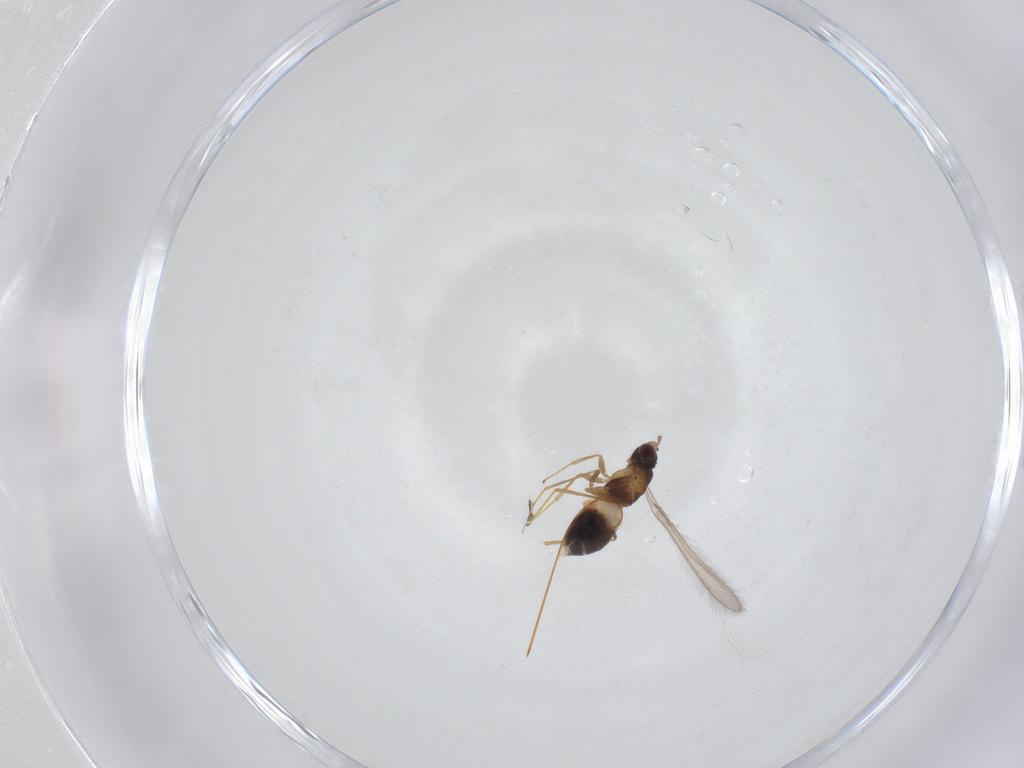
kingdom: Animalia
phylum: Arthropoda
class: Insecta
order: Hymenoptera
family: Mymaridae
